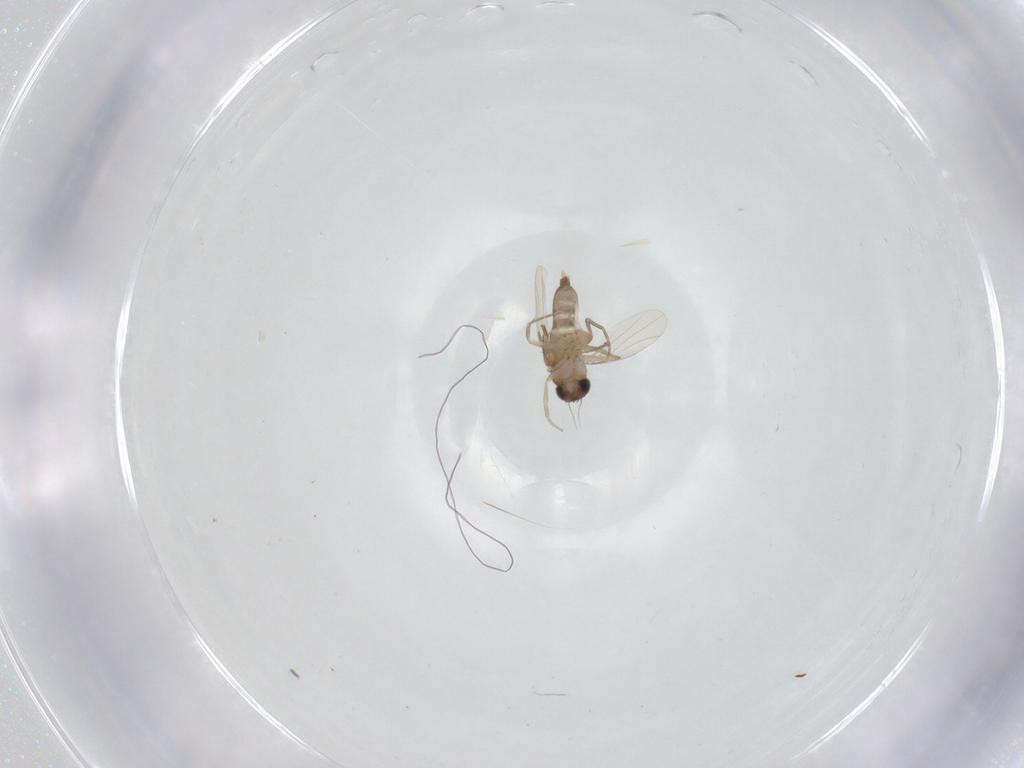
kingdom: Animalia
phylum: Arthropoda
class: Insecta
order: Diptera
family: Phoridae
